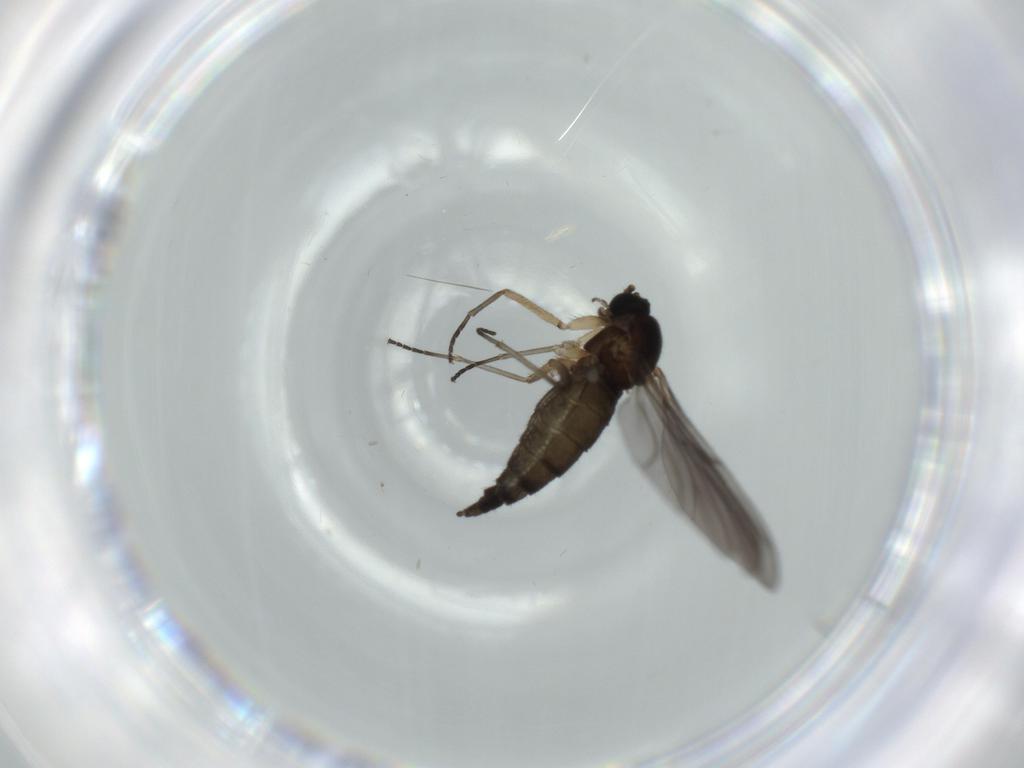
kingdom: Animalia
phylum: Arthropoda
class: Insecta
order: Diptera
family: Sciaridae
